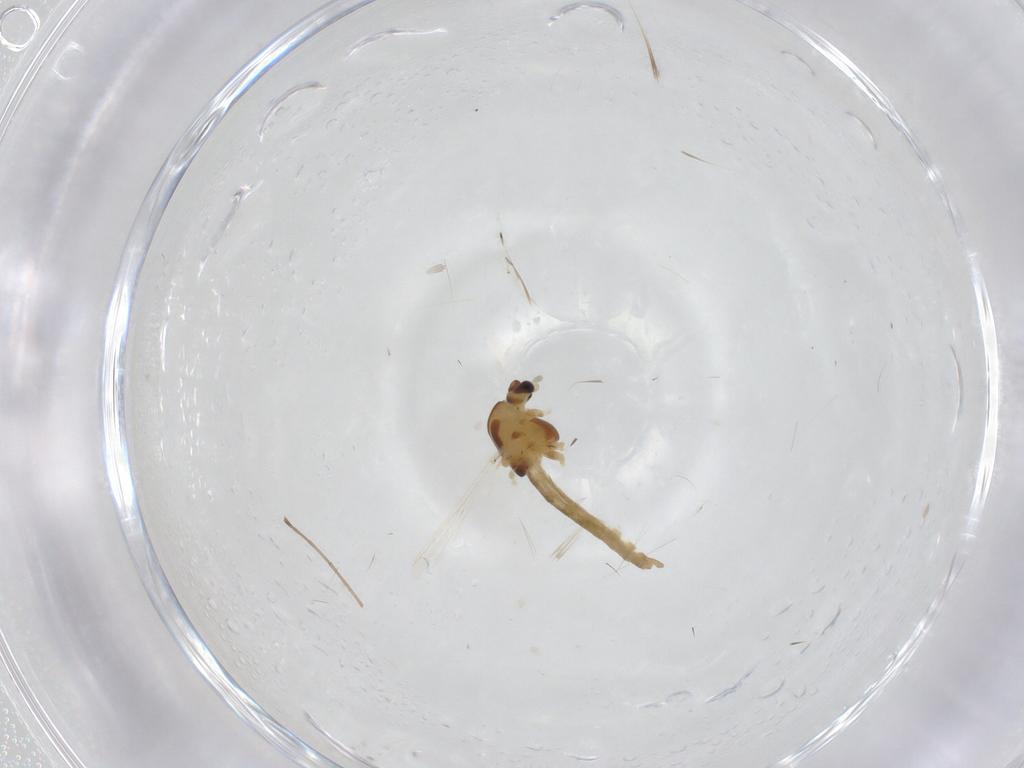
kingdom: Animalia
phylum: Arthropoda
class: Insecta
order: Diptera
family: Chironomidae
